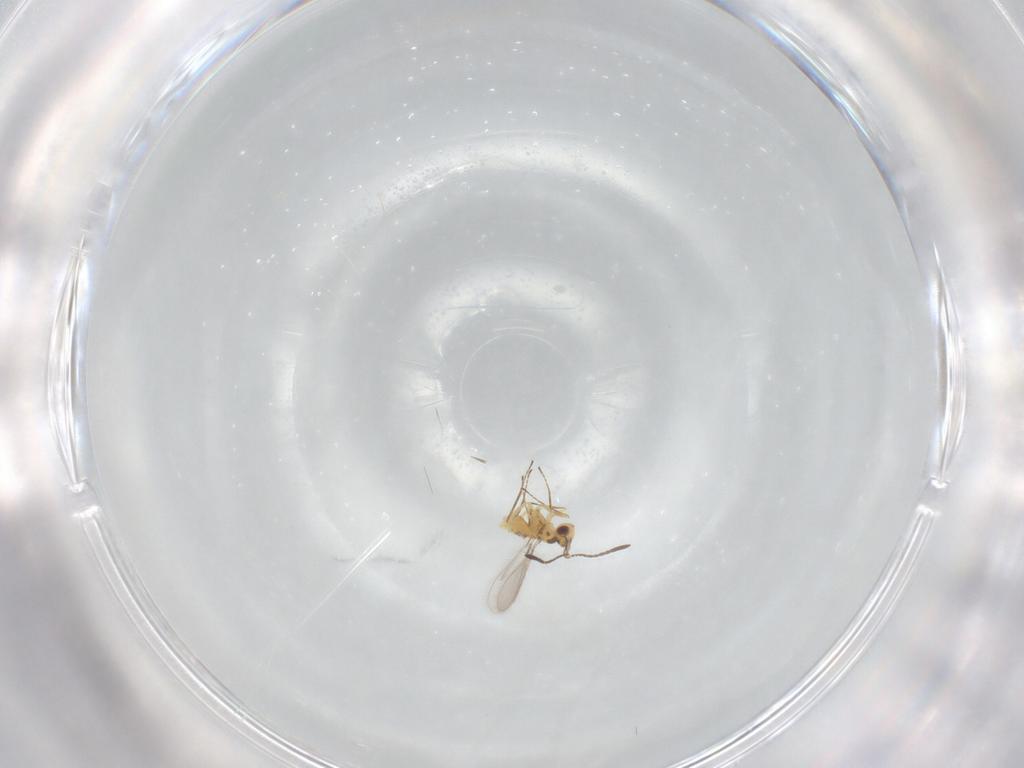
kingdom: Animalia
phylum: Arthropoda
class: Insecta
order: Hymenoptera
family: Mymaridae
